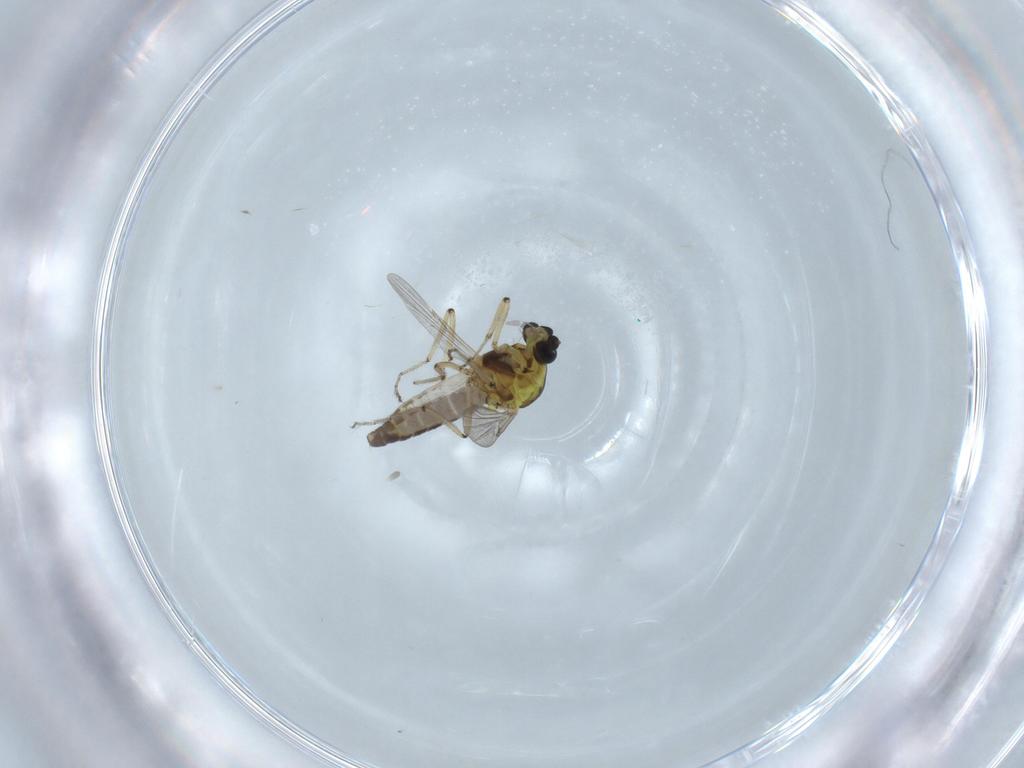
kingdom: Animalia
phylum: Arthropoda
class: Insecta
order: Diptera
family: Ceratopogonidae
